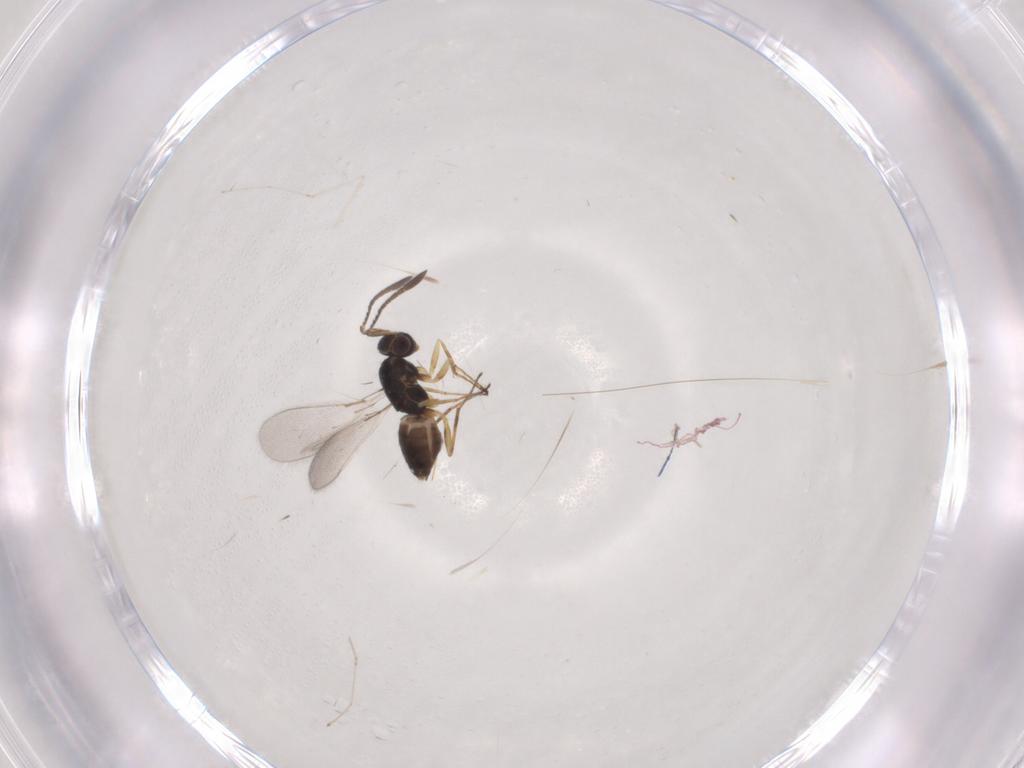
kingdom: Animalia
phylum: Arthropoda
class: Insecta
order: Hymenoptera
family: Mymaridae
